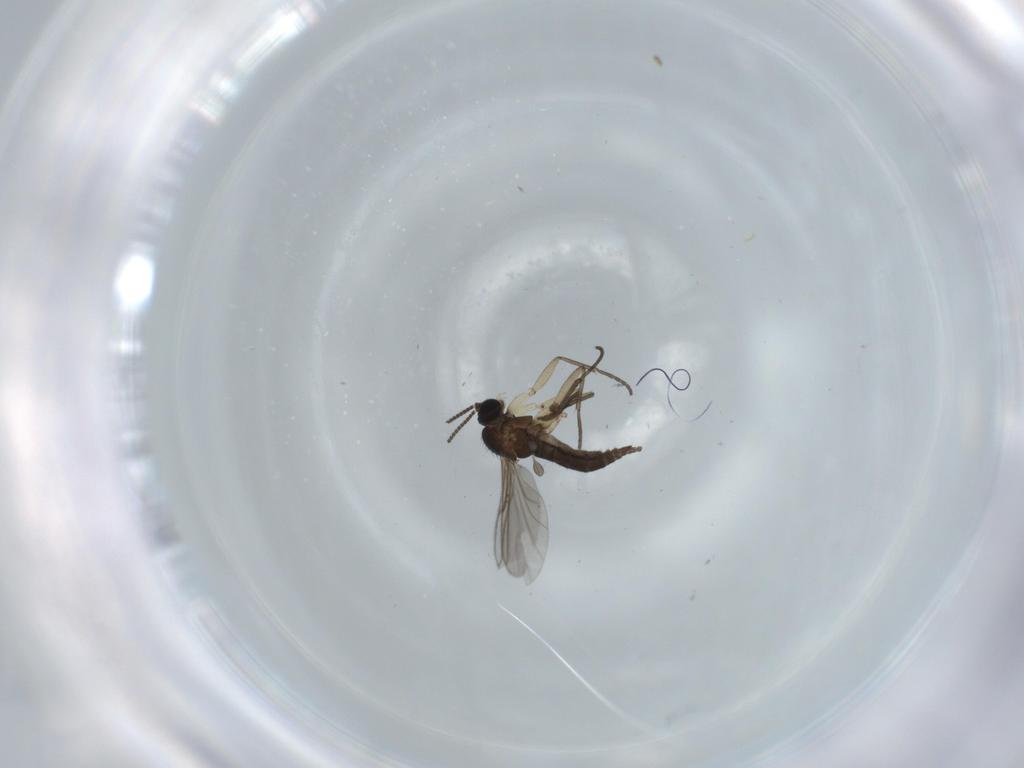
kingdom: Animalia
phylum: Arthropoda
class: Insecta
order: Diptera
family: Sciaridae
